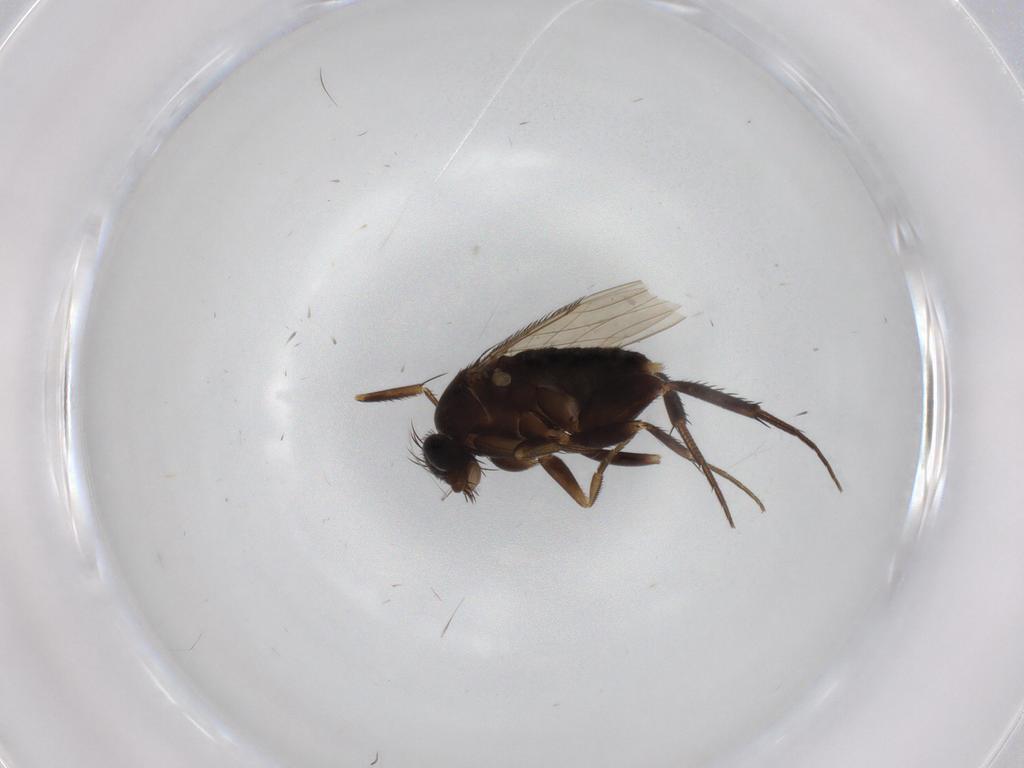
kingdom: Animalia
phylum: Arthropoda
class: Insecta
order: Diptera
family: Phoridae
